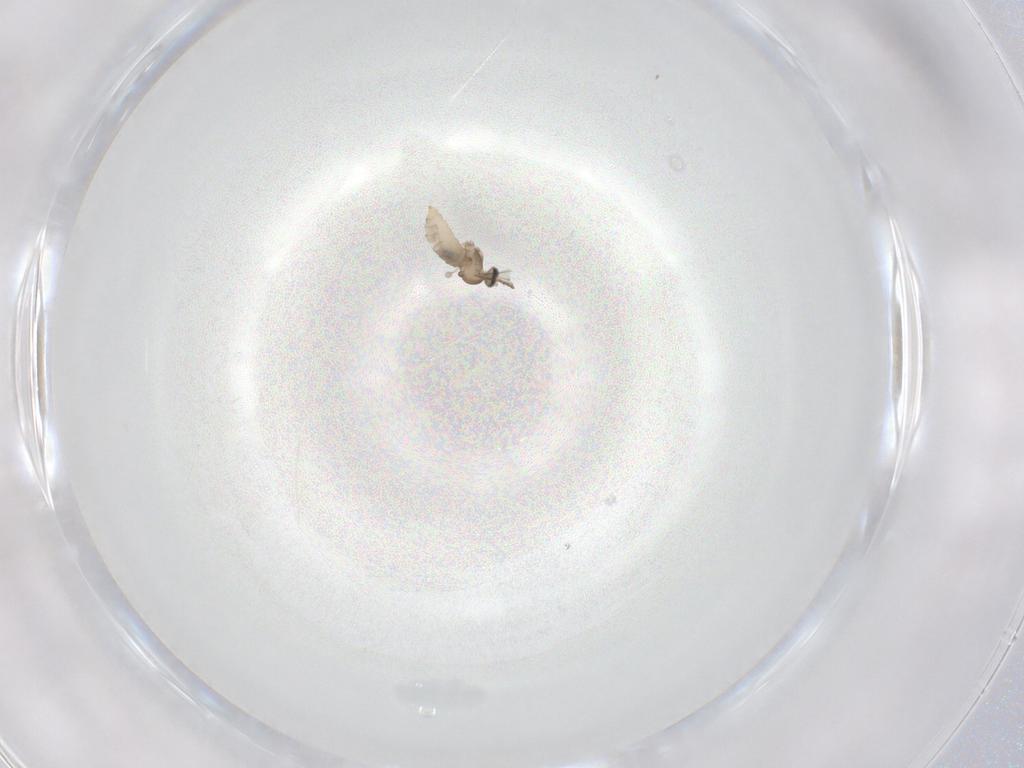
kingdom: Animalia
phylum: Arthropoda
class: Insecta
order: Diptera
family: Cecidomyiidae
